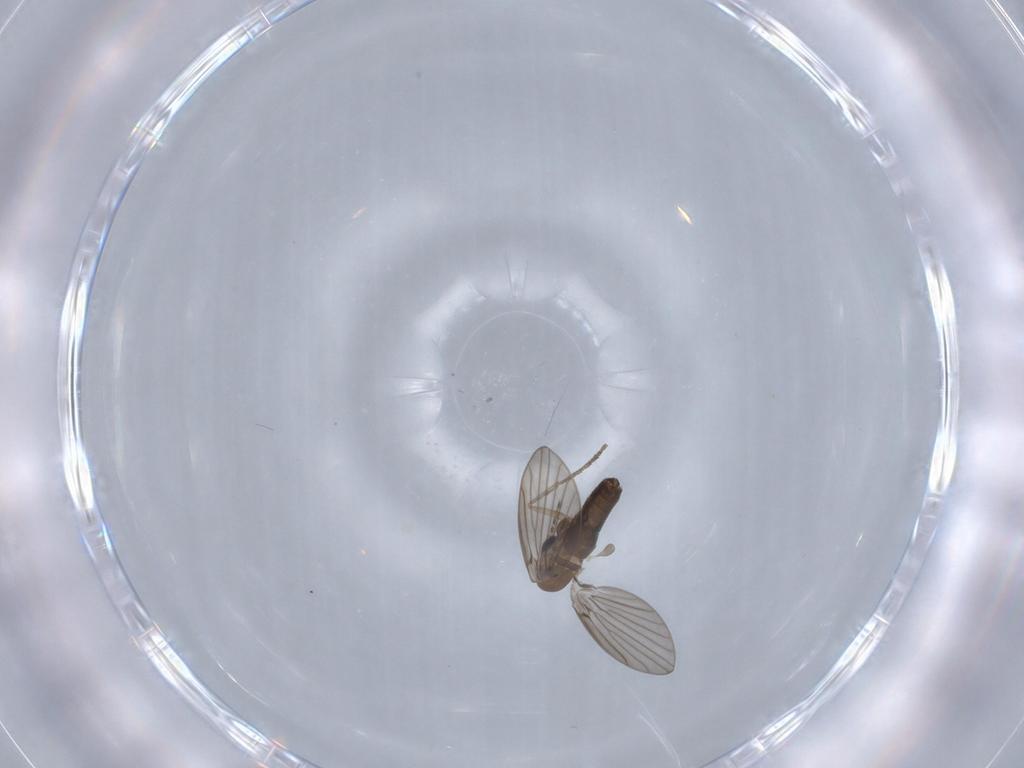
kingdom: Animalia
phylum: Arthropoda
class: Insecta
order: Diptera
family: Psychodidae
